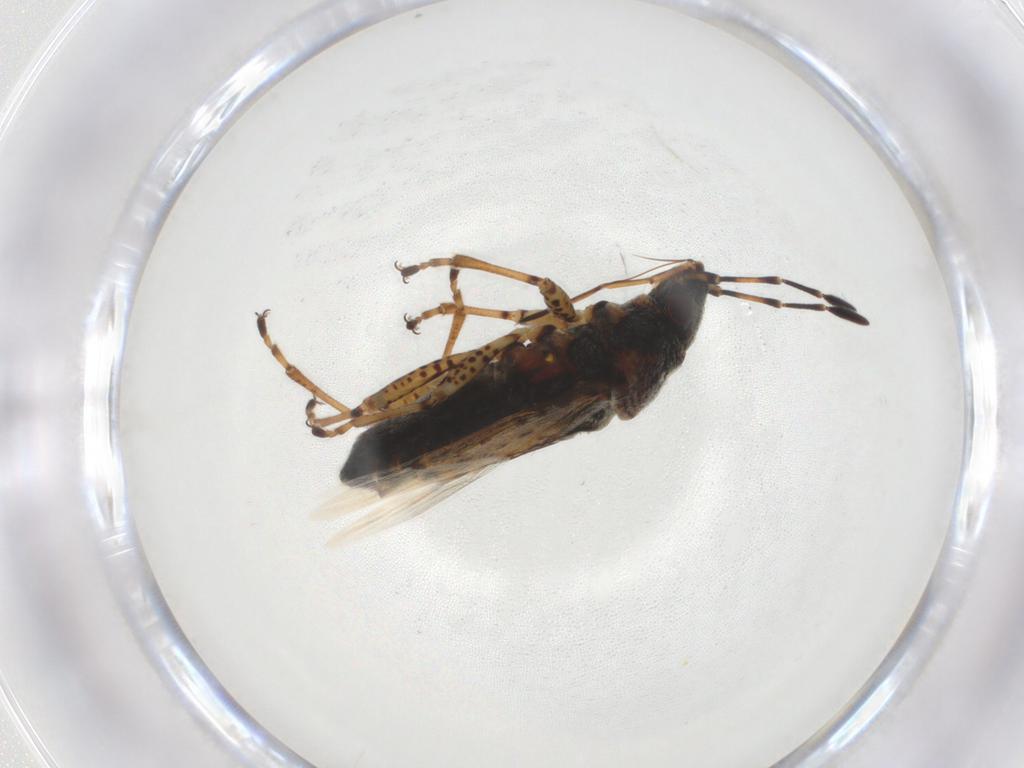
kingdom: Animalia
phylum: Arthropoda
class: Insecta
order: Hemiptera
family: Lygaeidae
